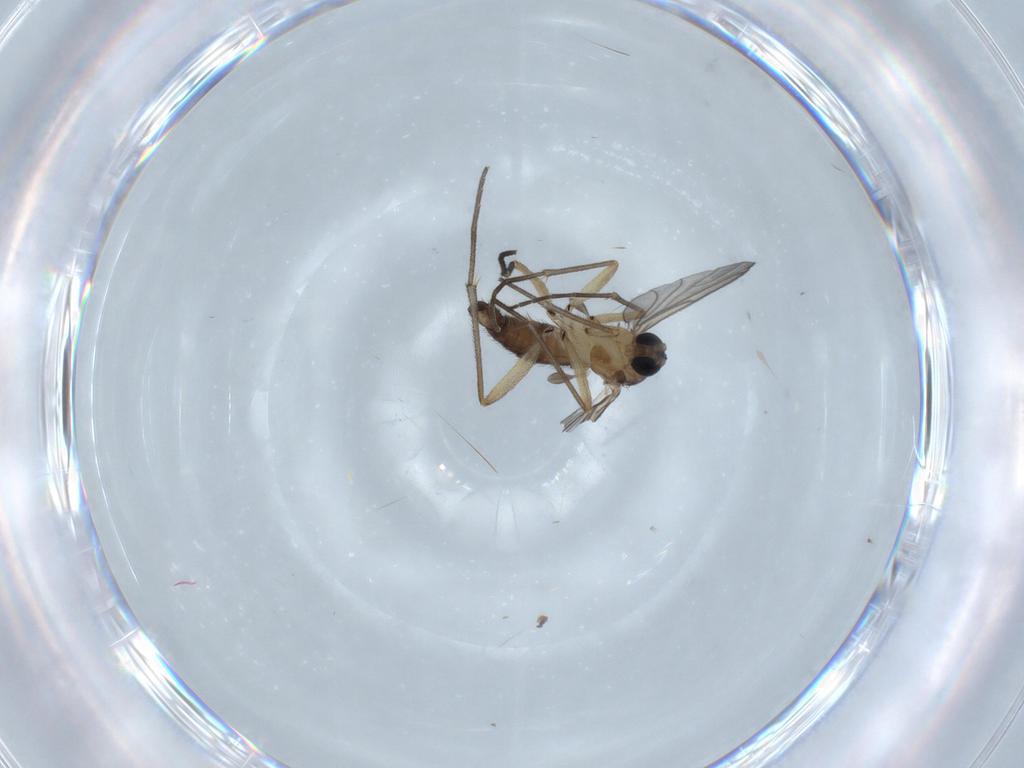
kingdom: Animalia
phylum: Arthropoda
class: Insecta
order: Diptera
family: Sciaridae
